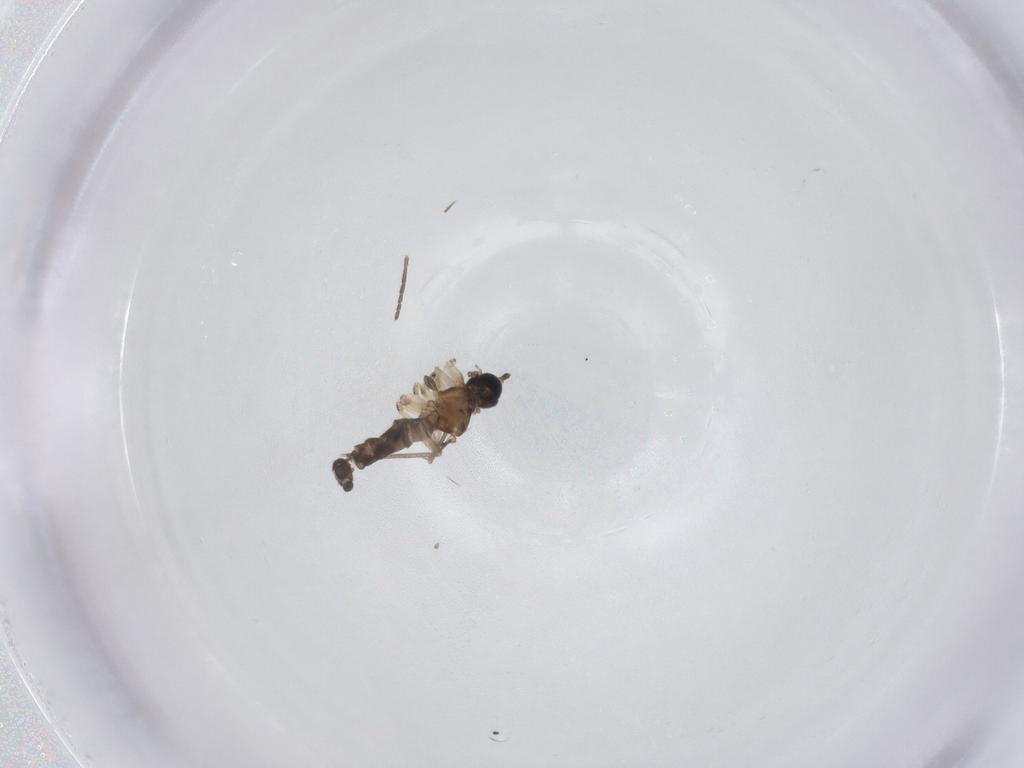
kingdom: Animalia
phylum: Arthropoda
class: Insecta
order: Diptera
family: Sciaridae
